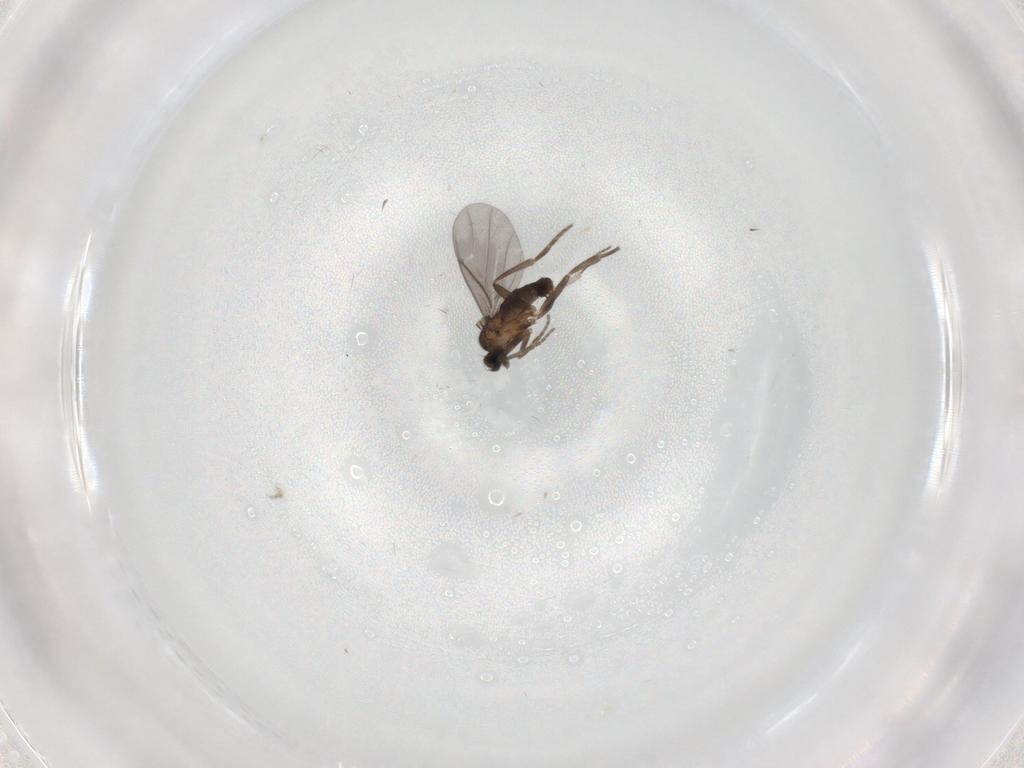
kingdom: Animalia
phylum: Arthropoda
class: Insecta
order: Diptera
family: Phoridae
